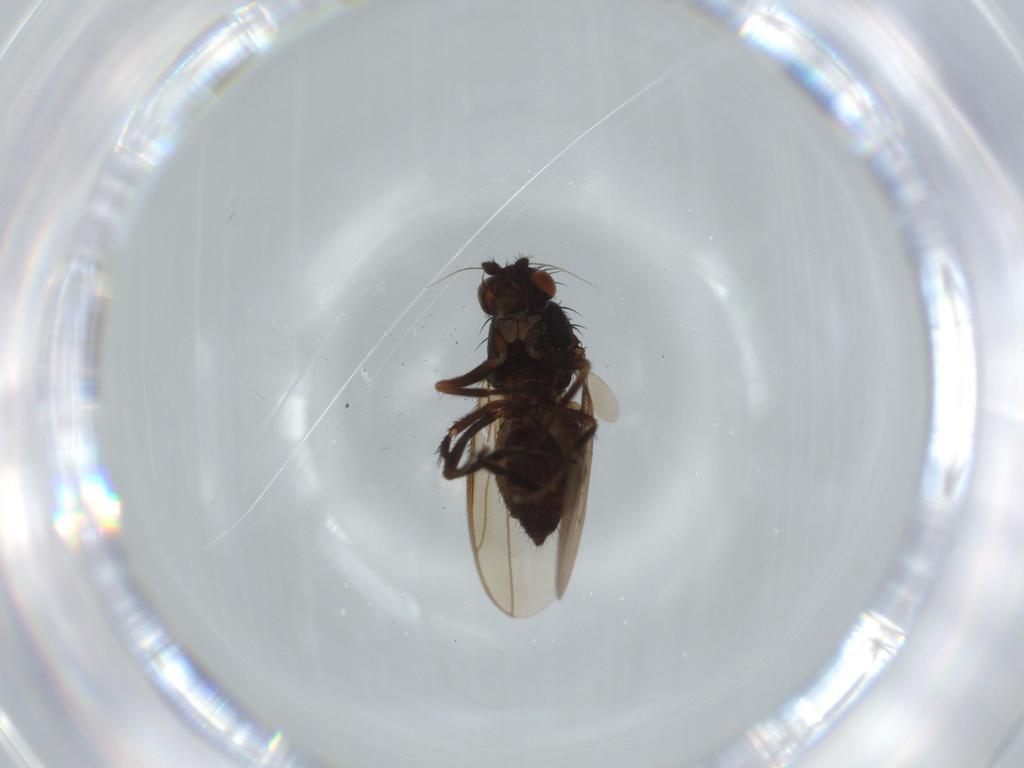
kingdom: Animalia
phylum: Arthropoda
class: Insecta
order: Diptera
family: Sphaeroceridae
